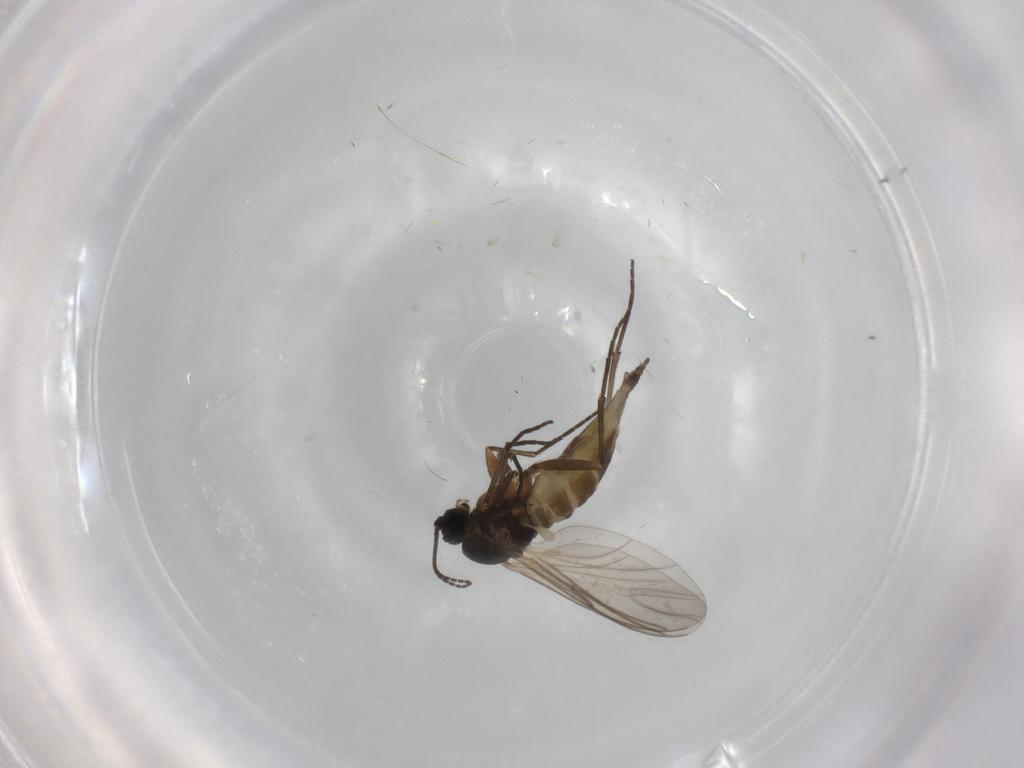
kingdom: Animalia
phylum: Arthropoda
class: Insecta
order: Diptera
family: Sciaridae
